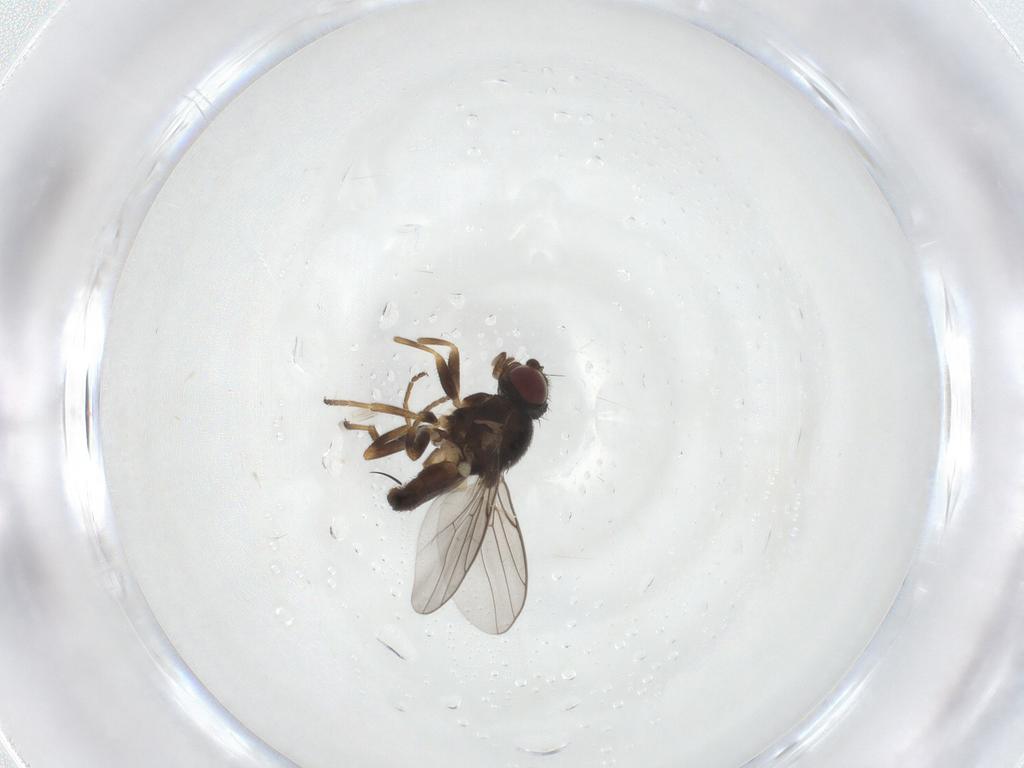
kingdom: Animalia
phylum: Arthropoda
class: Insecta
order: Diptera
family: Chloropidae
